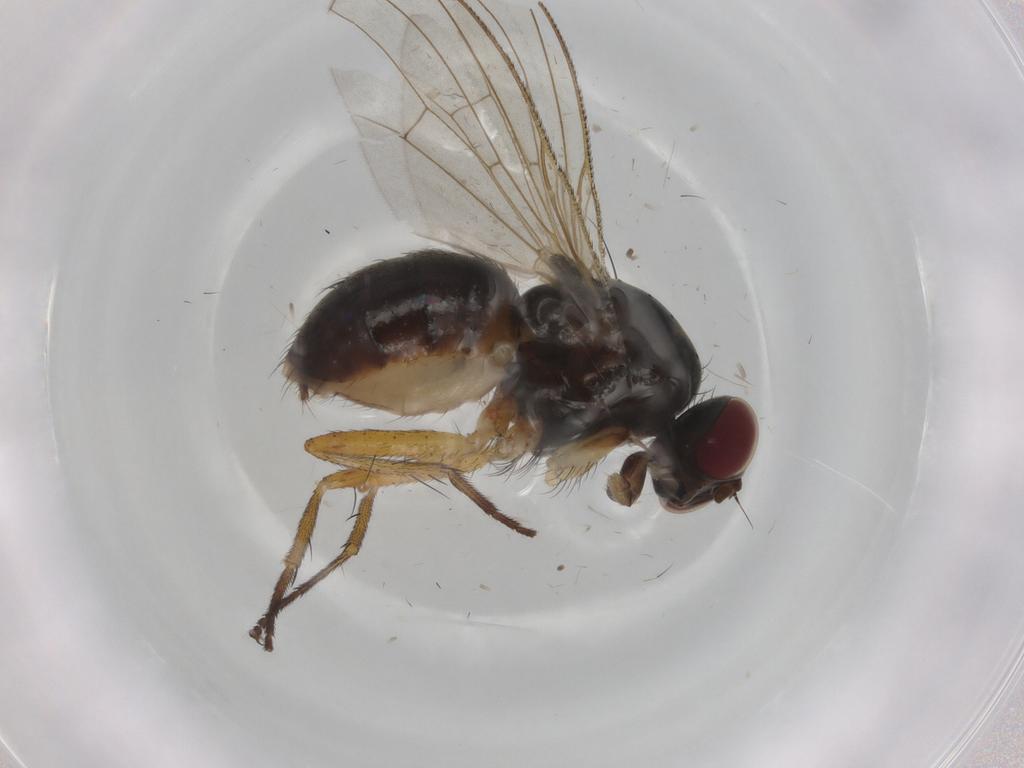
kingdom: Animalia
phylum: Arthropoda
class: Insecta
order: Diptera
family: Muscidae
